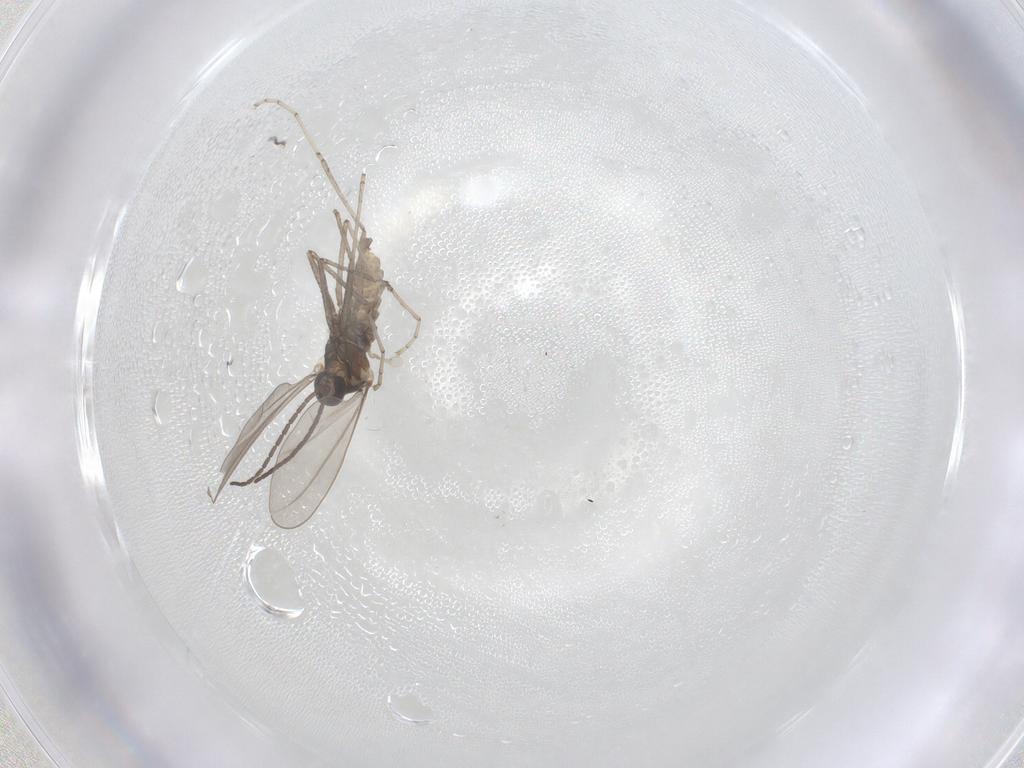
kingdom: Animalia
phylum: Arthropoda
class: Insecta
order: Diptera
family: Cecidomyiidae
